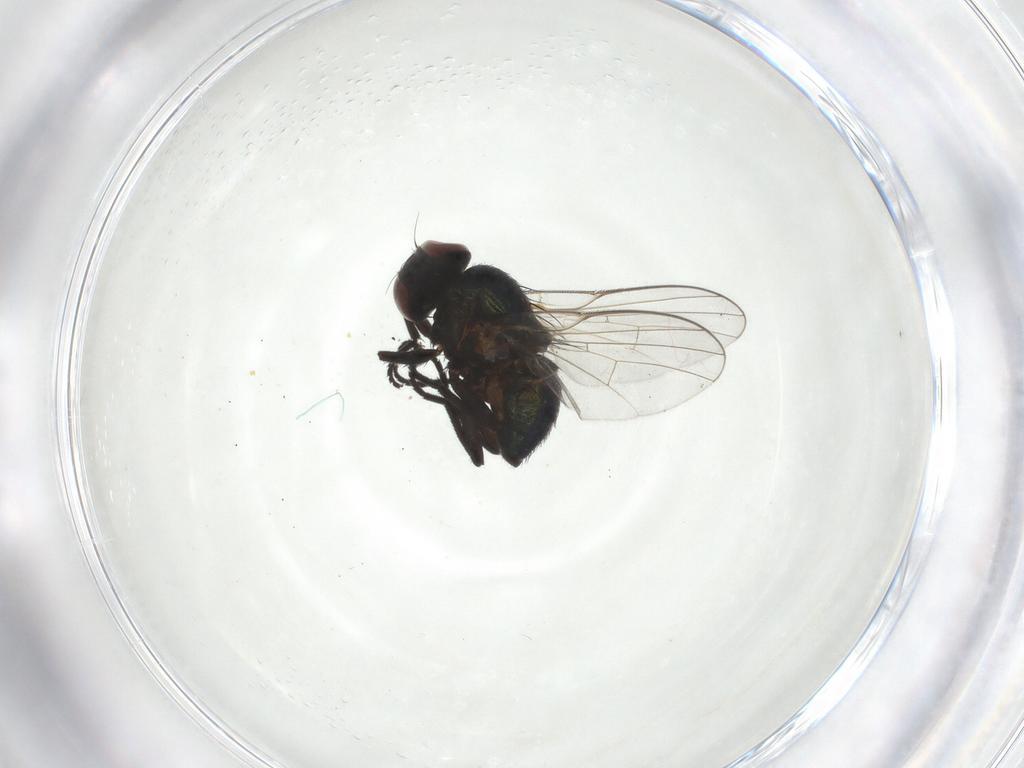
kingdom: Animalia
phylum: Arthropoda
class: Insecta
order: Diptera
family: Agromyzidae
